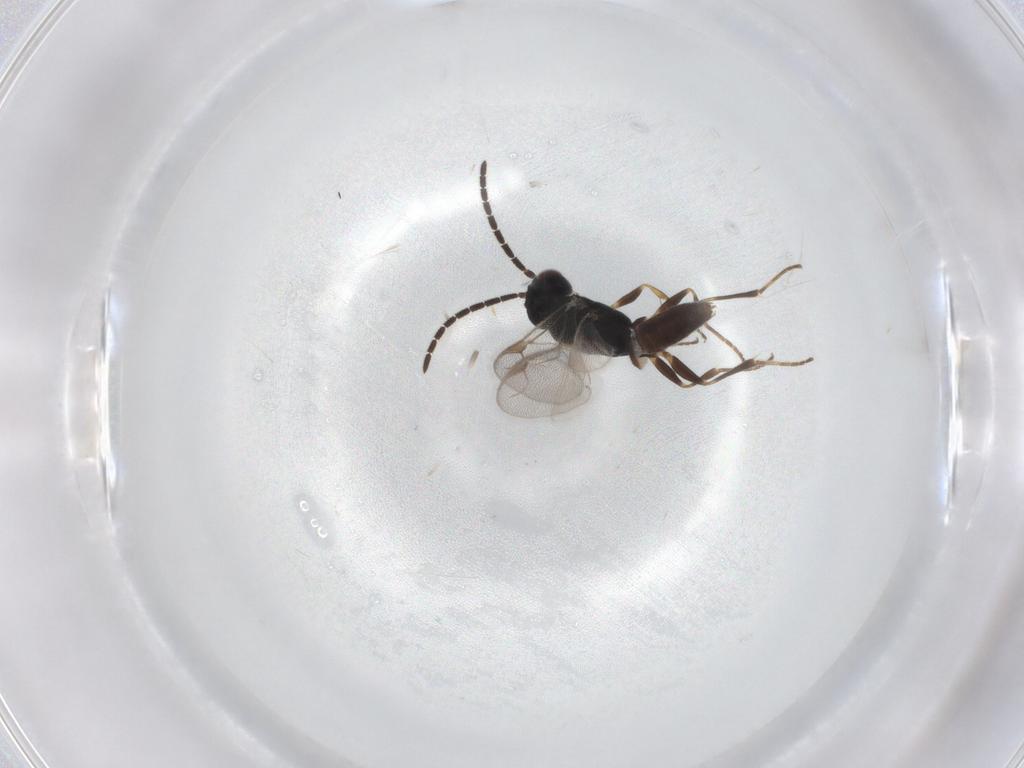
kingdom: Animalia
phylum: Arthropoda
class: Insecta
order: Hymenoptera
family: Dryinidae
